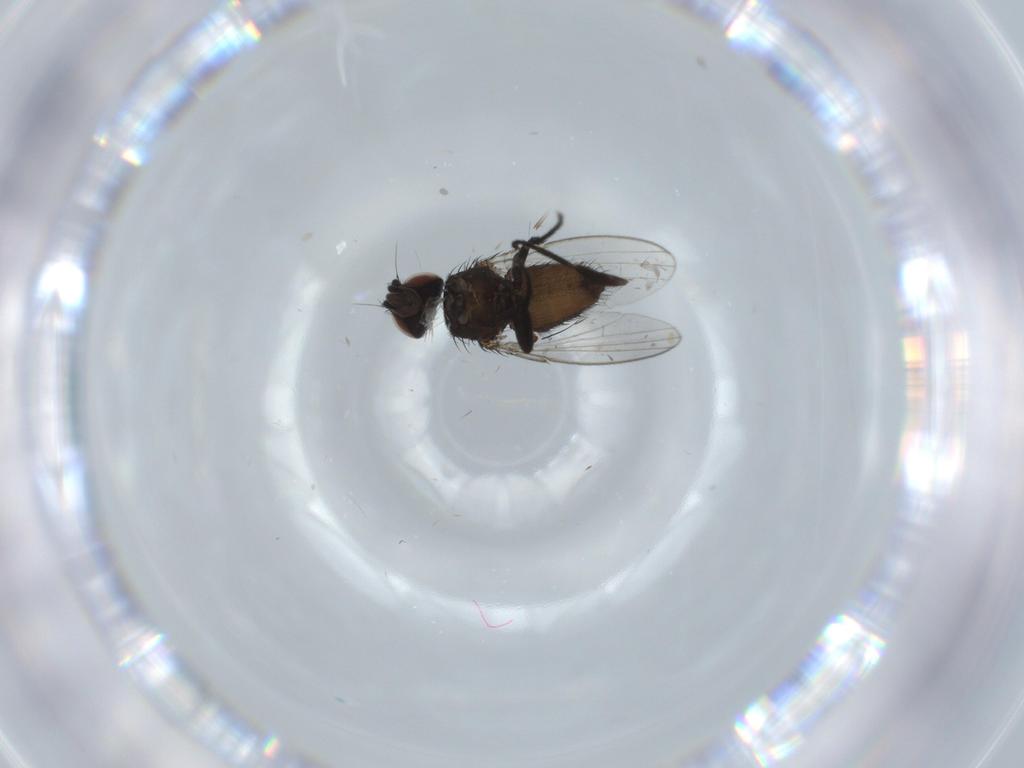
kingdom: Animalia
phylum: Arthropoda
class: Insecta
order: Diptera
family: Milichiidae
